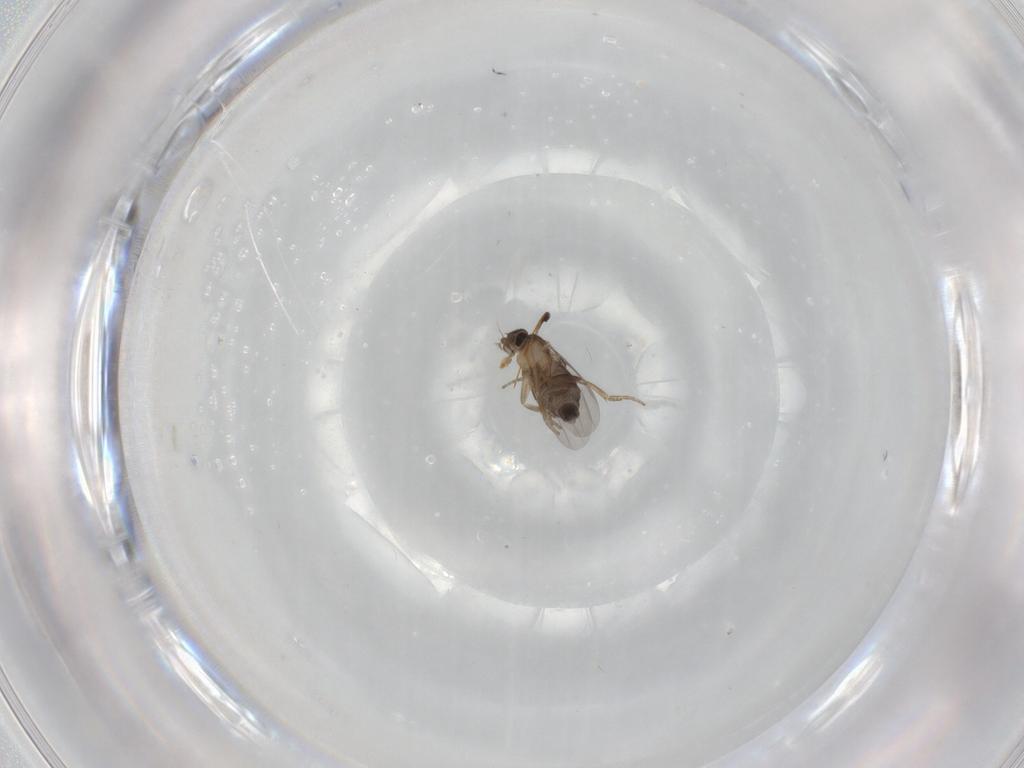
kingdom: Animalia
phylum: Arthropoda
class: Insecta
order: Diptera
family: Phoridae
